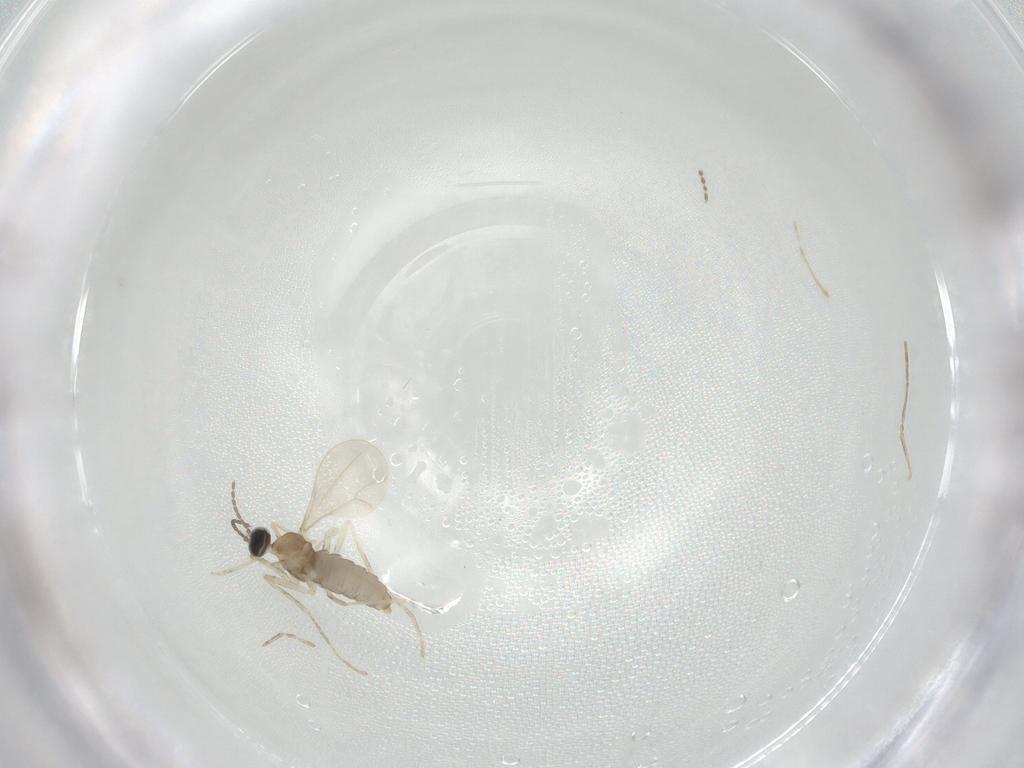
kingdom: Animalia
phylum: Arthropoda
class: Insecta
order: Diptera
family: Cecidomyiidae
